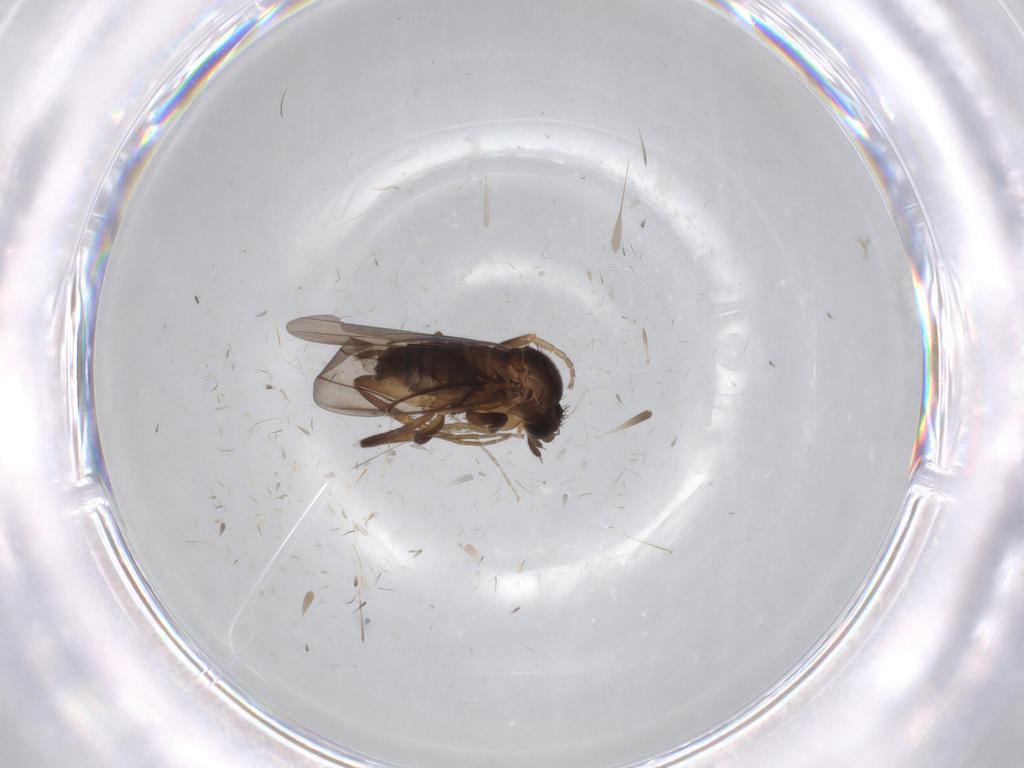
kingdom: Animalia
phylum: Arthropoda
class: Insecta
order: Diptera
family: Phoridae
